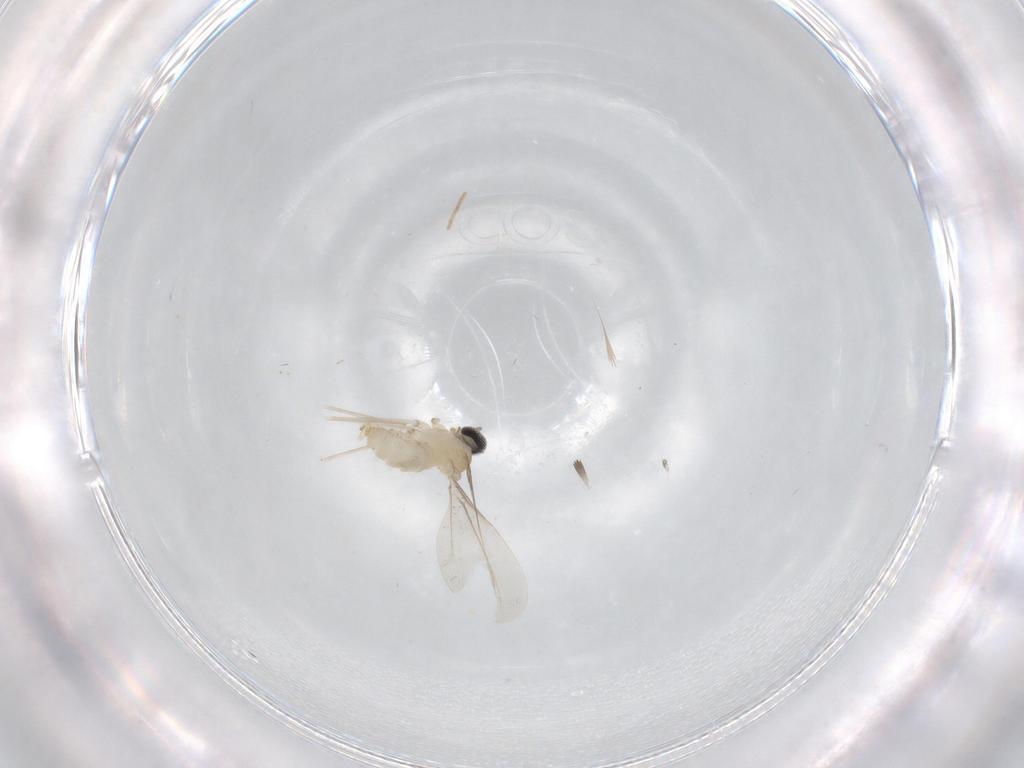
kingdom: Animalia
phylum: Arthropoda
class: Insecta
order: Diptera
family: Cecidomyiidae
